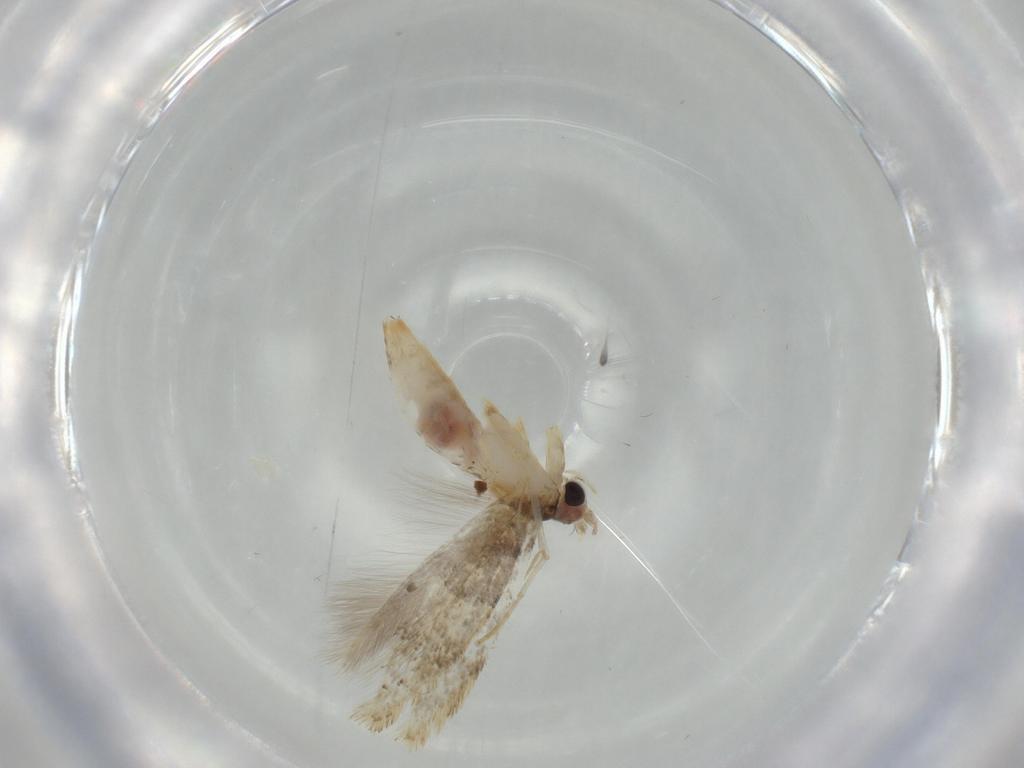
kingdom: Animalia
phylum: Arthropoda
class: Insecta
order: Lepidoptera
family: Tineidae
